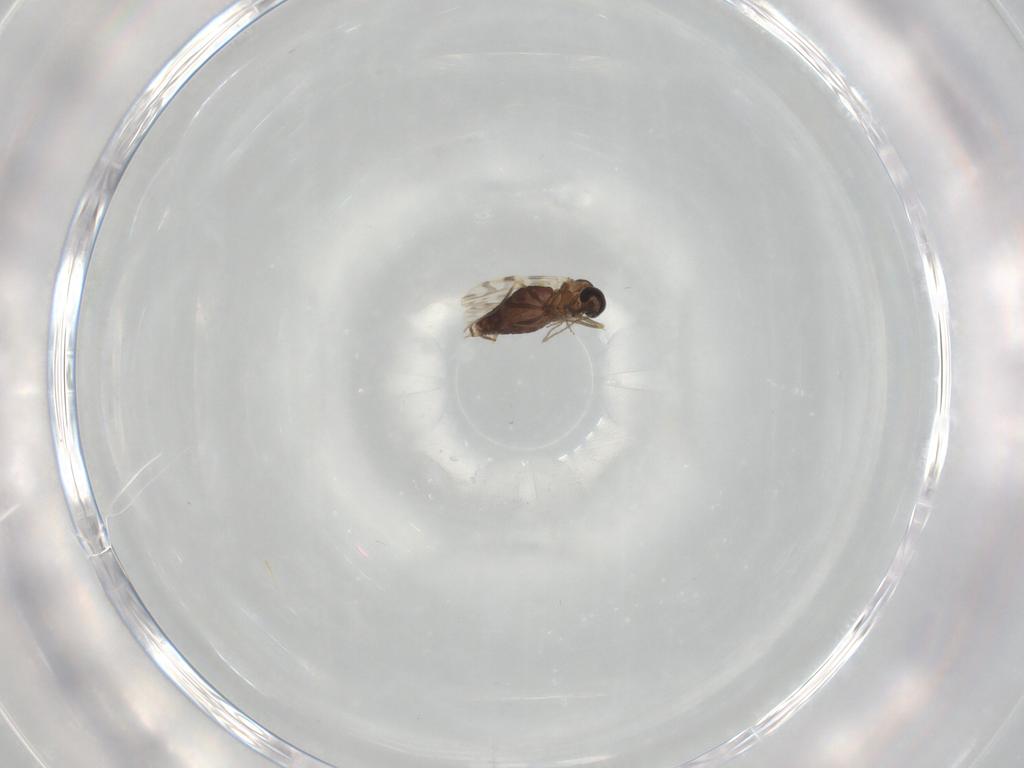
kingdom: Animalia
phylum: Arthropoda
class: Insecta
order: Diptera
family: Ceratopogonidae
